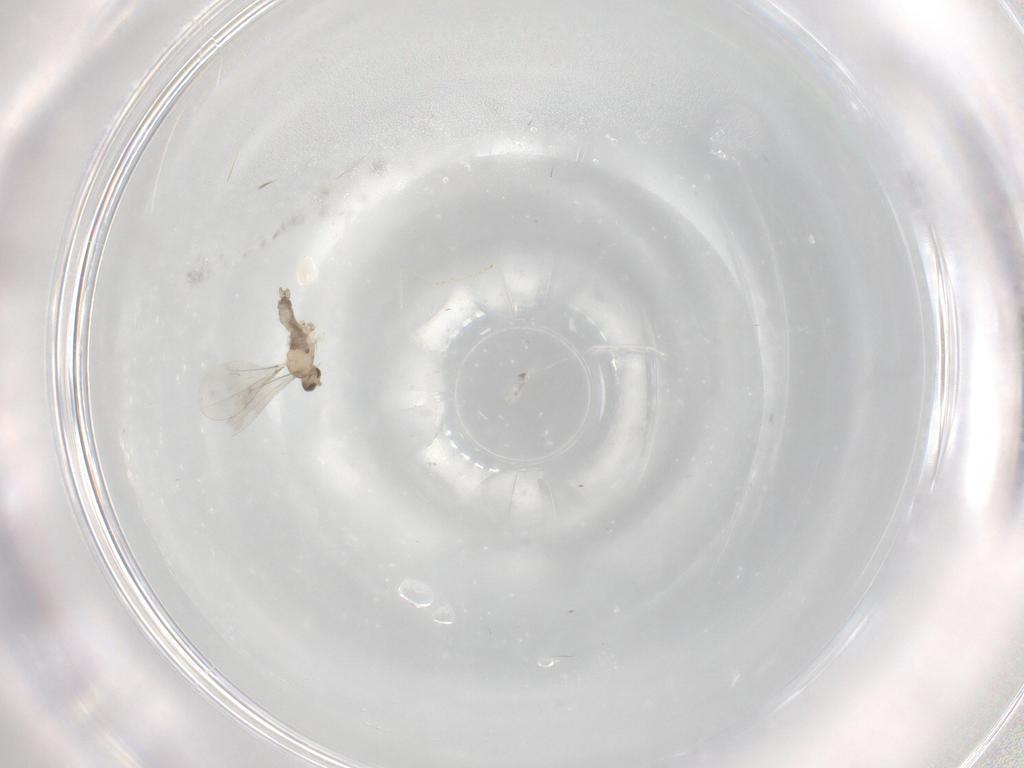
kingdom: Animalia
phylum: Arthropoda
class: Insecta
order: Diptera
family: Cecidomyiidae
